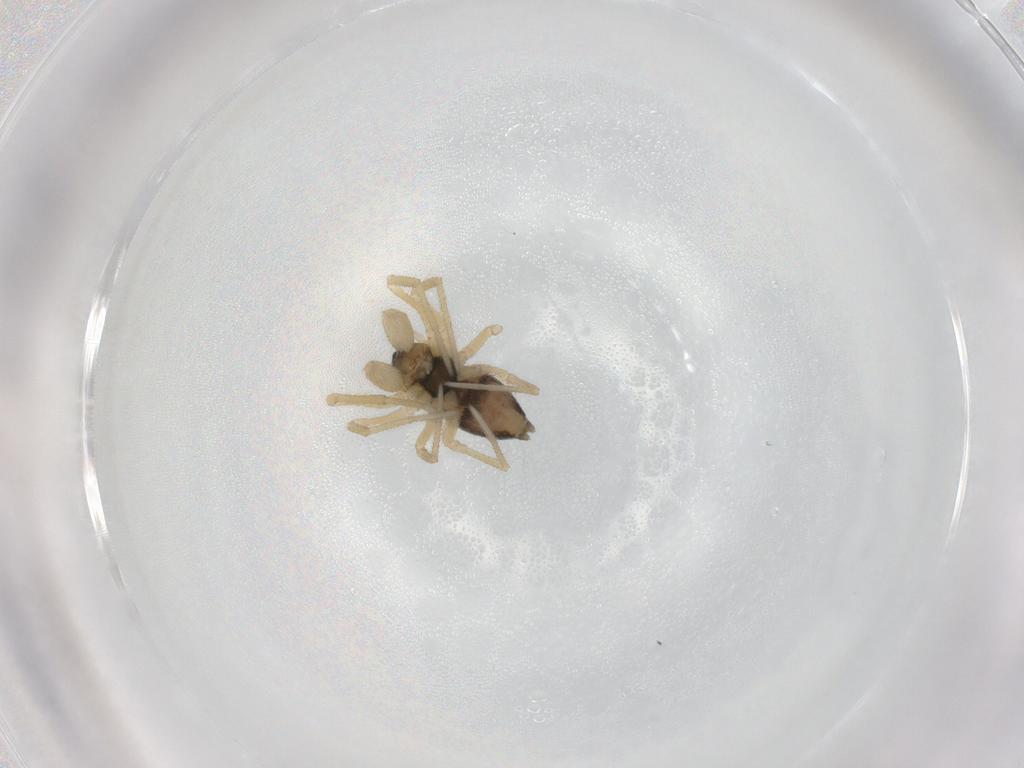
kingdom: Animalia
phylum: Arthropoda
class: Arachnida
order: Araneae
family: Linyphiidae
